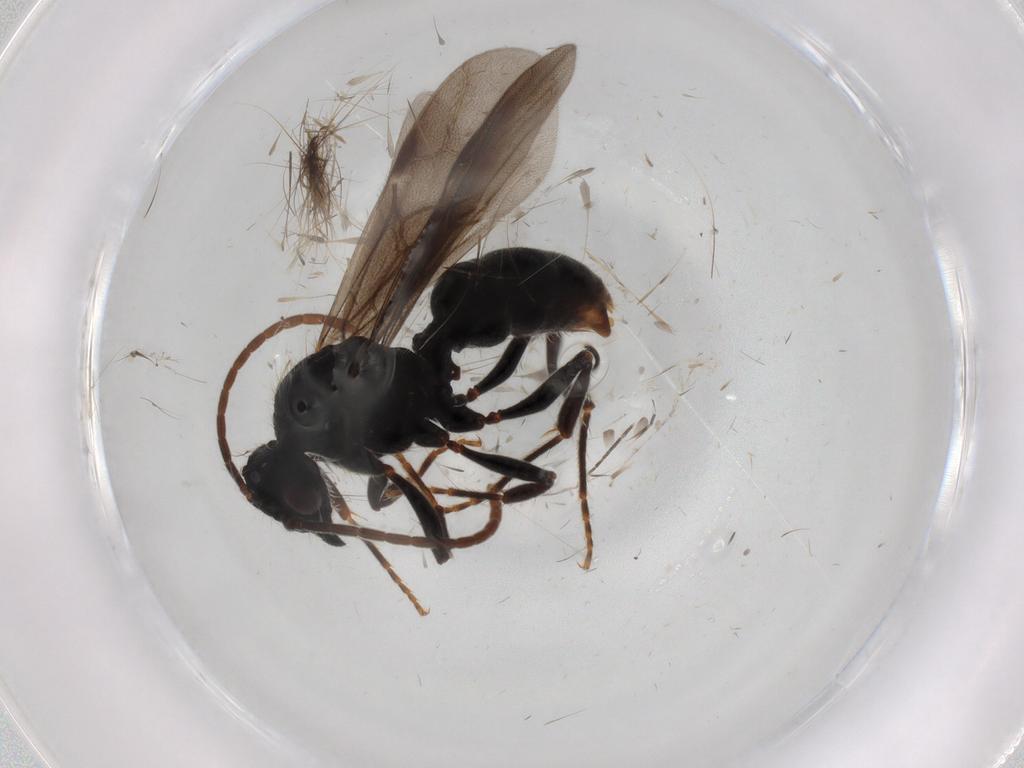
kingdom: Animalia
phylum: Arthropoda
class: Insecta
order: Hymenoptera
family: Formicidae
